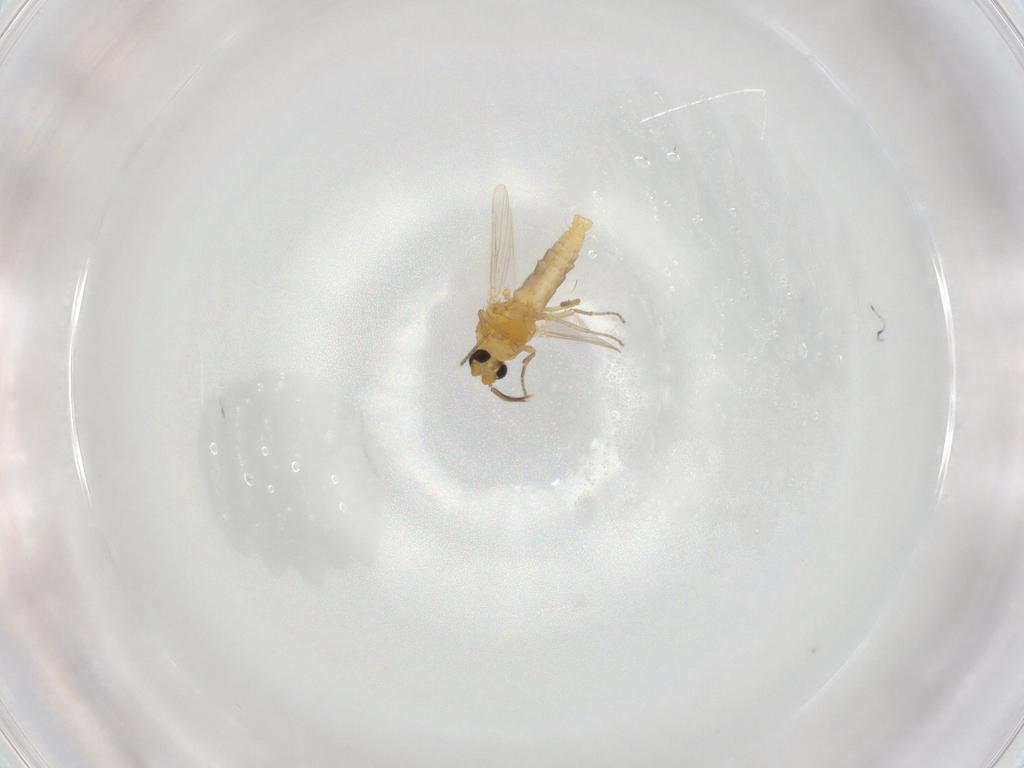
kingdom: Animalia
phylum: Arthropoda
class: Insecta
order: Diptera
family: Ceratopogonidae
